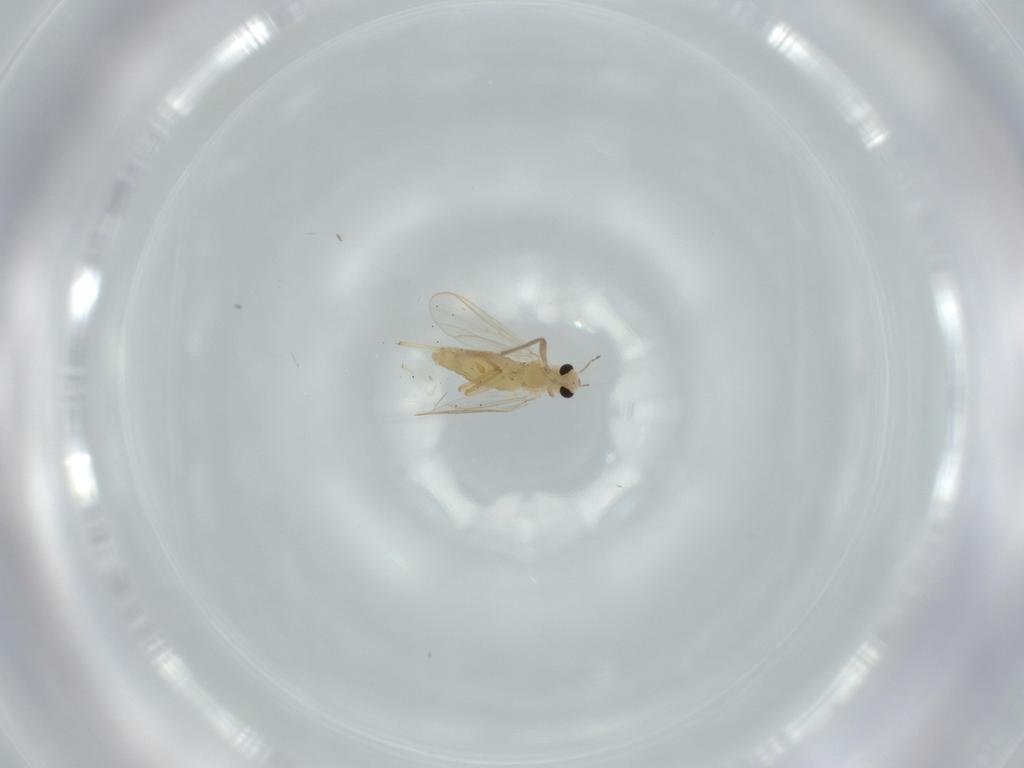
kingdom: Animalia
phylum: Arthropoda
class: Insecta
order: Diptera
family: Chironomidae
